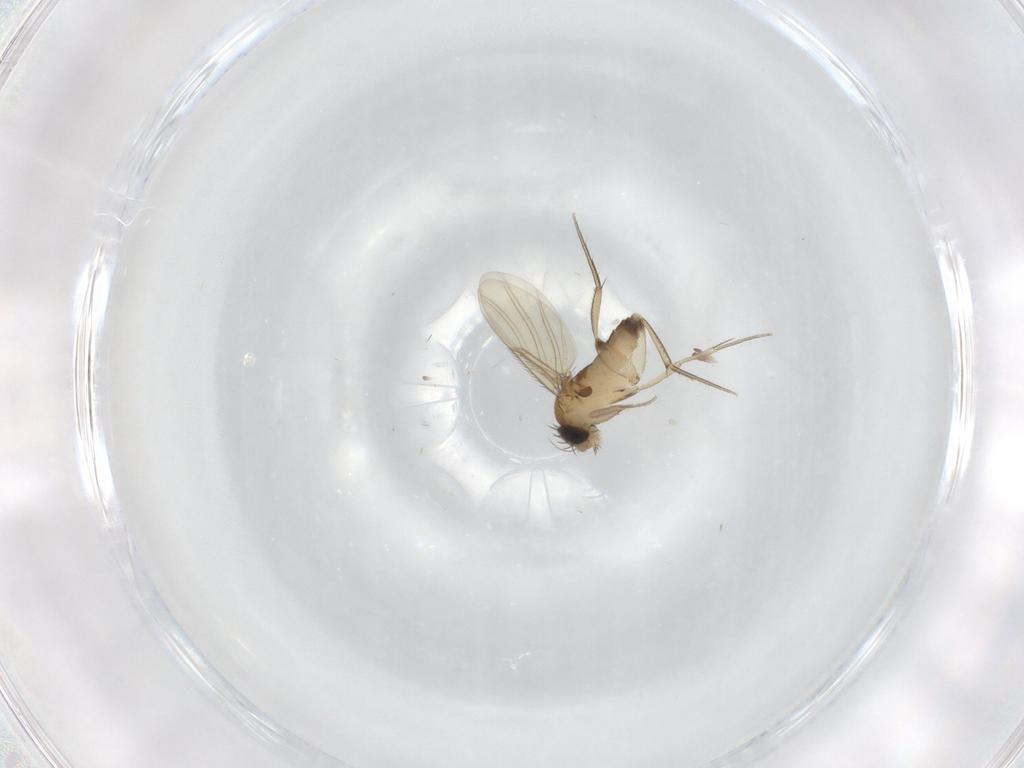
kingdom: Animalia
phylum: Arthropoda
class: Insecta
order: Diptera
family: Phoridae
